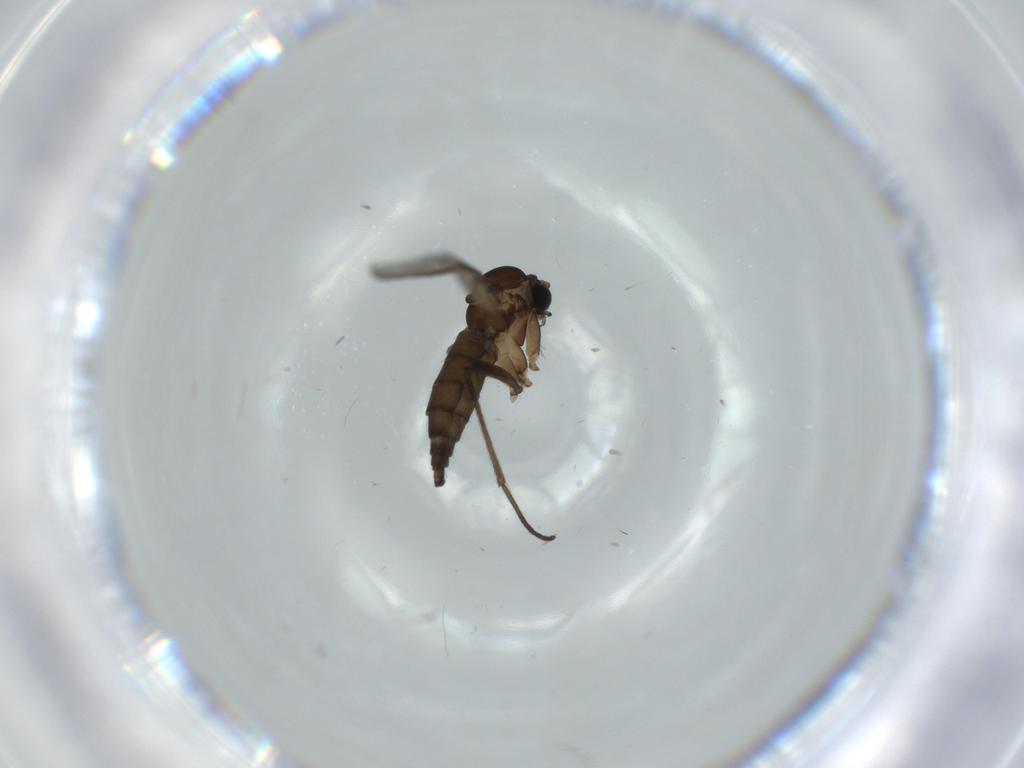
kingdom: Animalia
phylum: Arthropoda
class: Insecta
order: Diptera
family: Sciaridae
